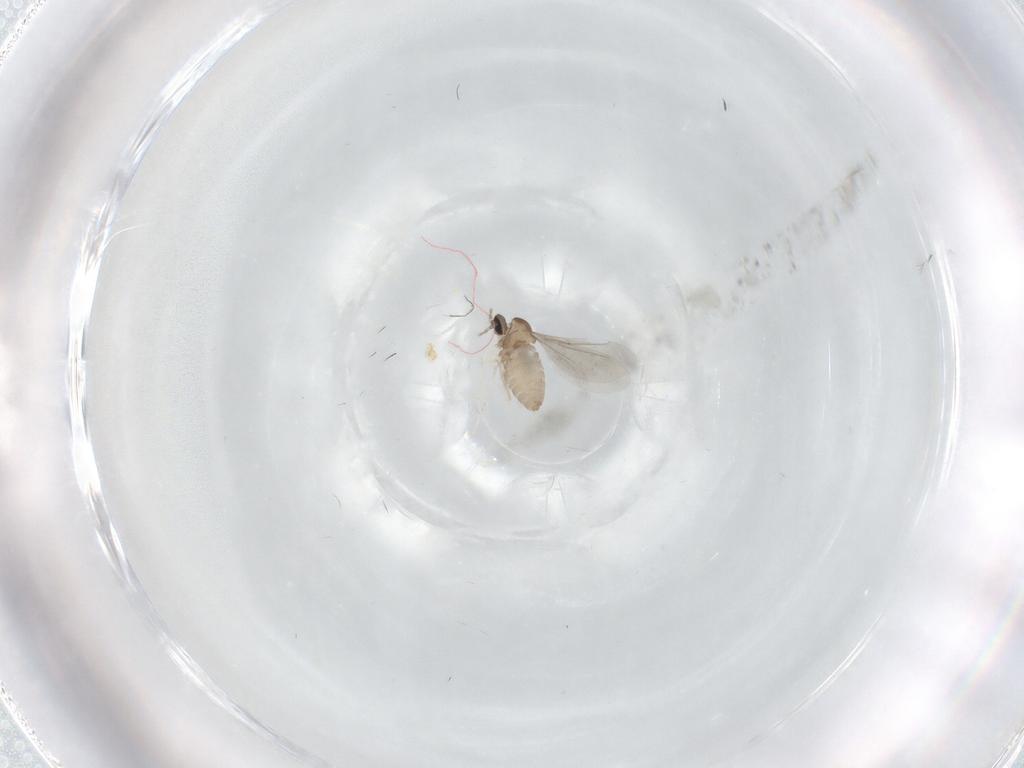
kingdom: Animalia
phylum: Arthropoda
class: Insecta
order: Diptera
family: Cecidomyiidae
